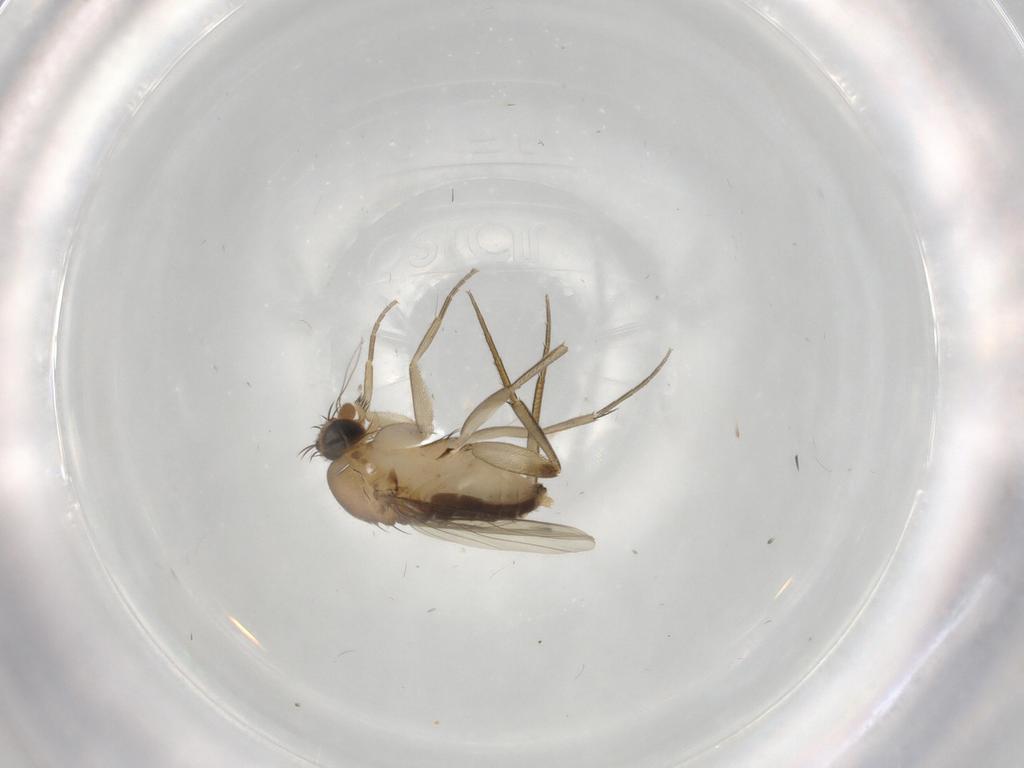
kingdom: Animalia
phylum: Arthropoda
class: Insecta
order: Diptera
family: Phoridae
